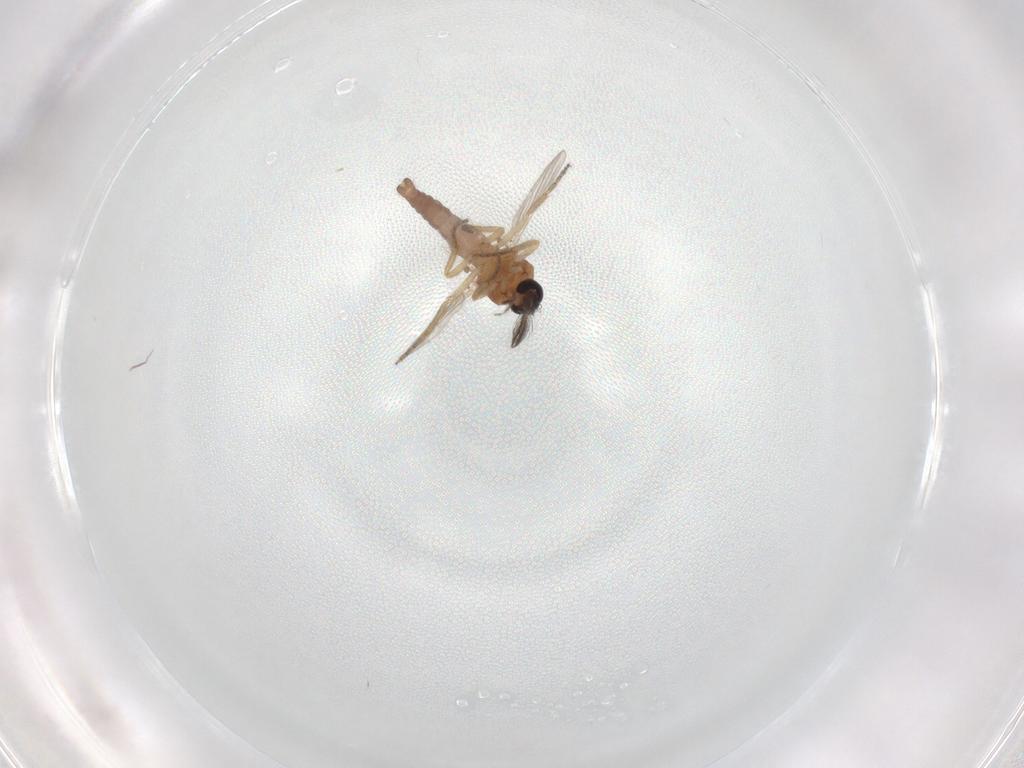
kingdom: Animalia
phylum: Arthropoda
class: Insecta
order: Diptera
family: Ceratopogonidae
